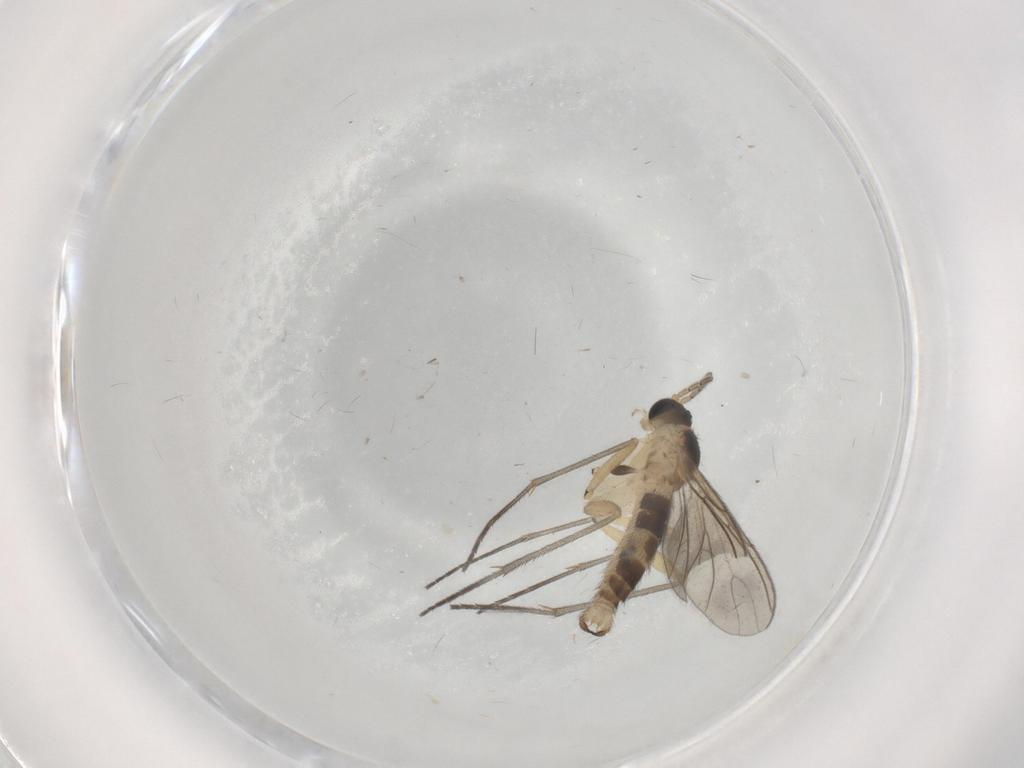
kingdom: Animalia
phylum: Arthropoda
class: Insecta
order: Diptera
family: Sciaridae
